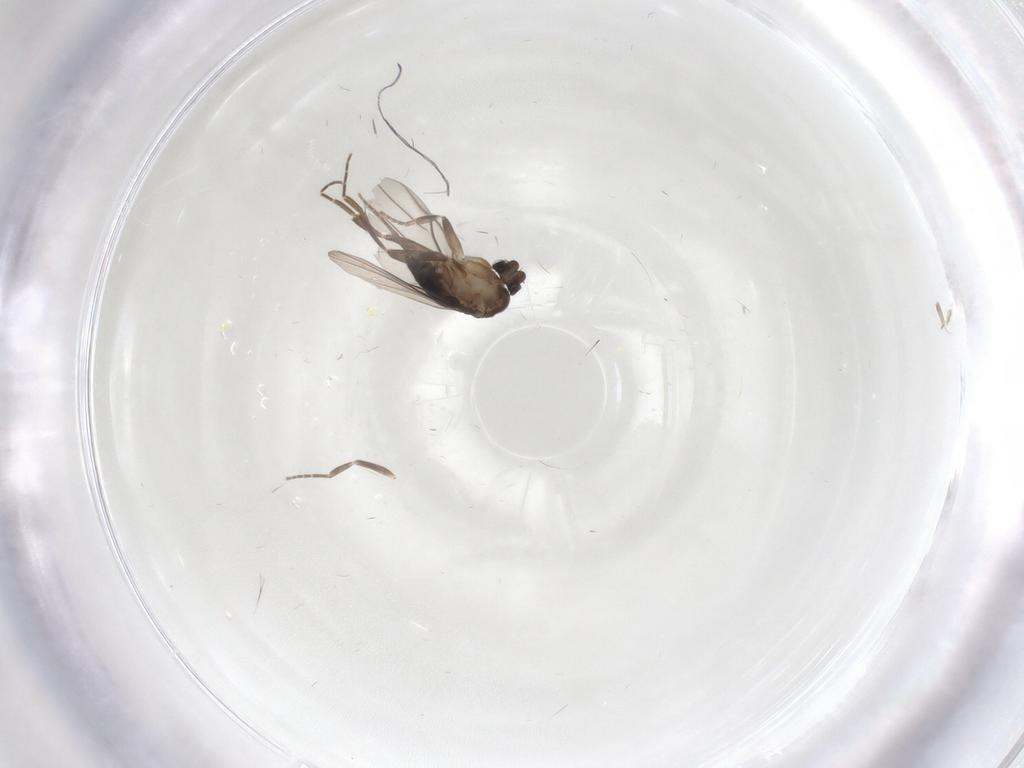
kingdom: Animalia
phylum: Arthropoda
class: Insecta
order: Diptera
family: Phoridae
